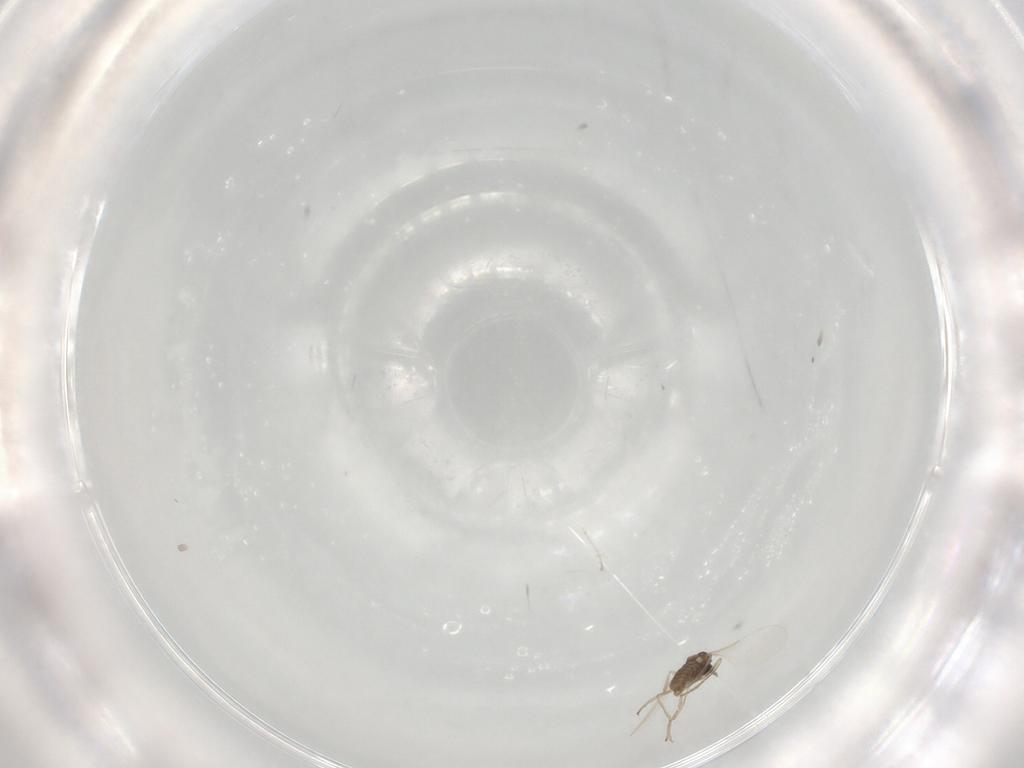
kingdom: Animalia
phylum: Arthropoda
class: Insecta
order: Diptera
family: Cecidomyiidae
